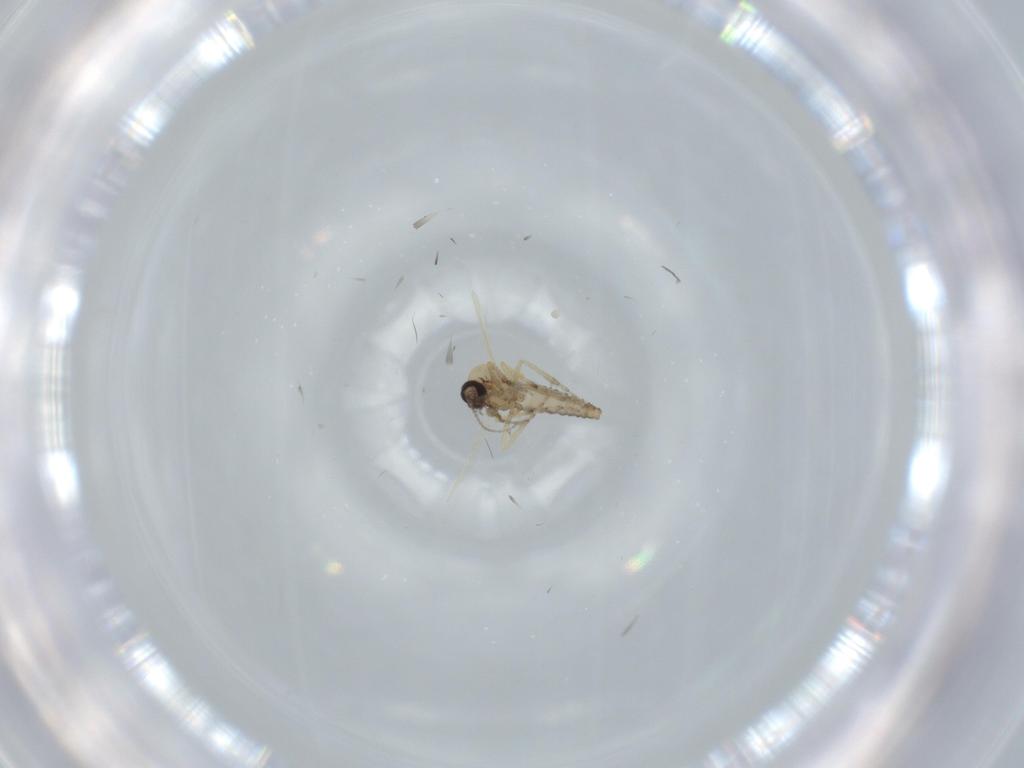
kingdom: Animalia
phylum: Arthropoda
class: Insecta
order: Diptera
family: Ceratopogonidae
